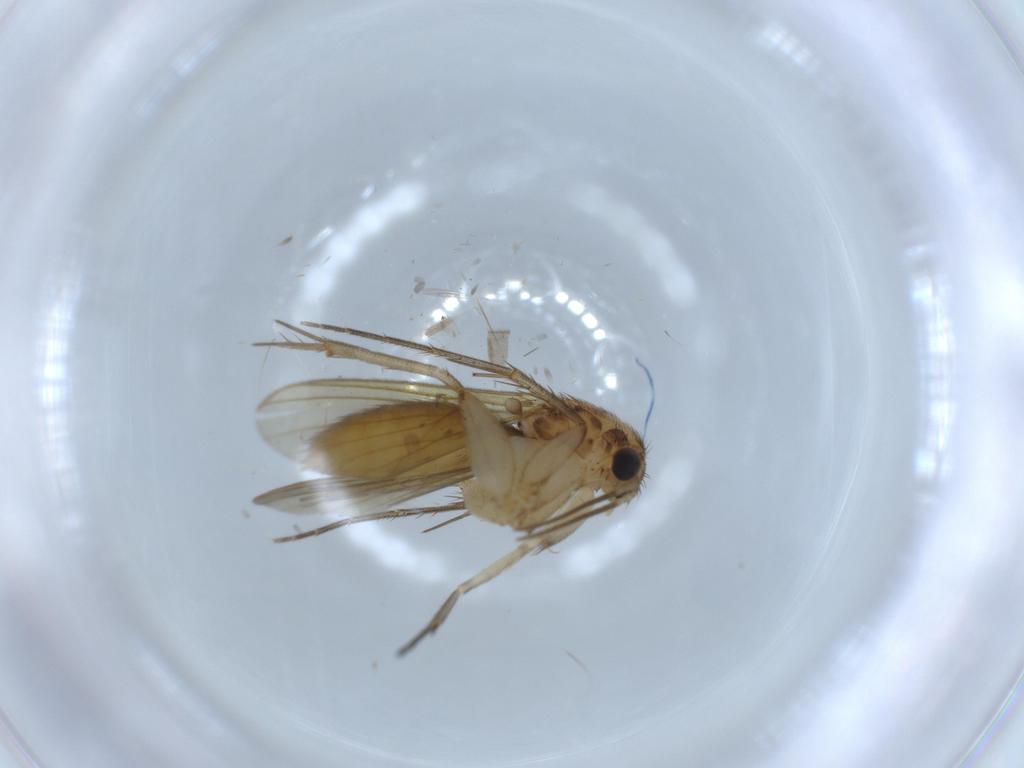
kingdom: Animalia
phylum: Arthropoda
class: Insecta
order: Diptera
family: Mycetophilidae
